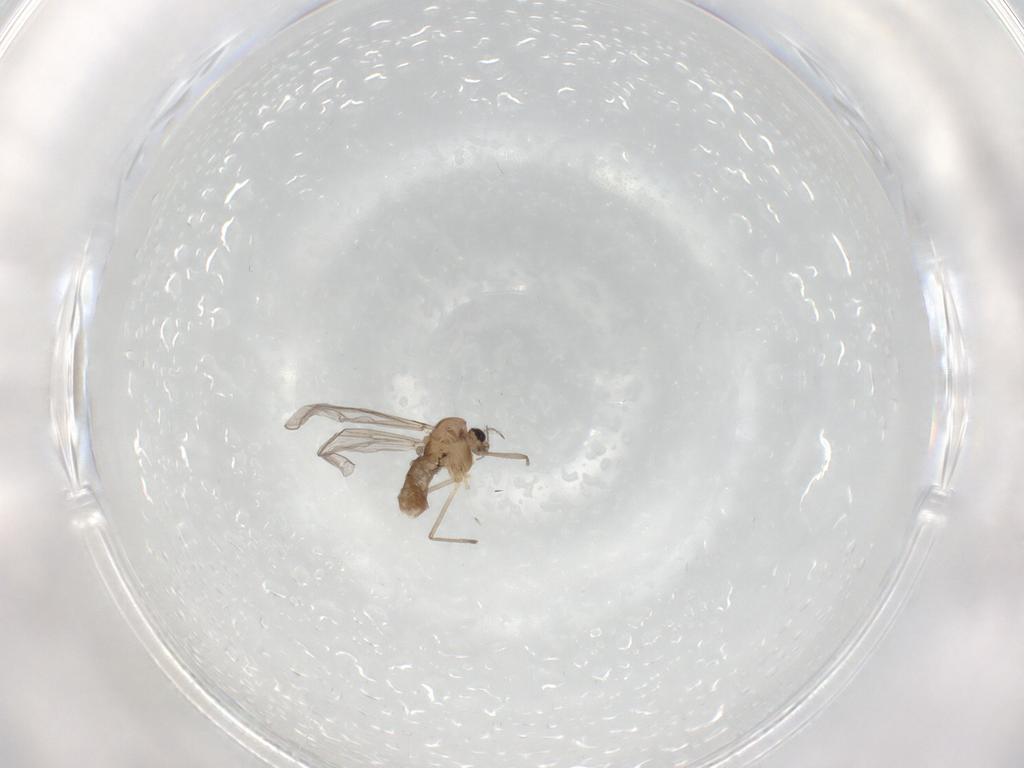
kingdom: Animalia
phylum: Arthropoda
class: Insecta
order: Diptera
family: Chironomidae
